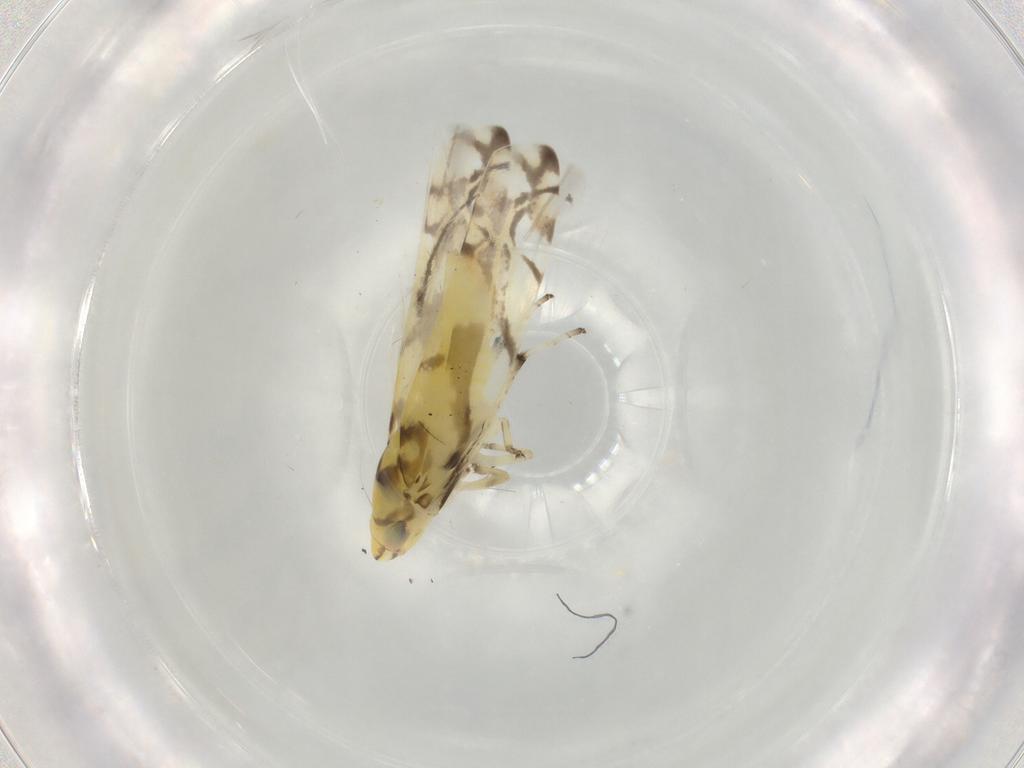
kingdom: Animalia
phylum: Arthropoda
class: Insecta
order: Hemiptera
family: Cicadellidae
